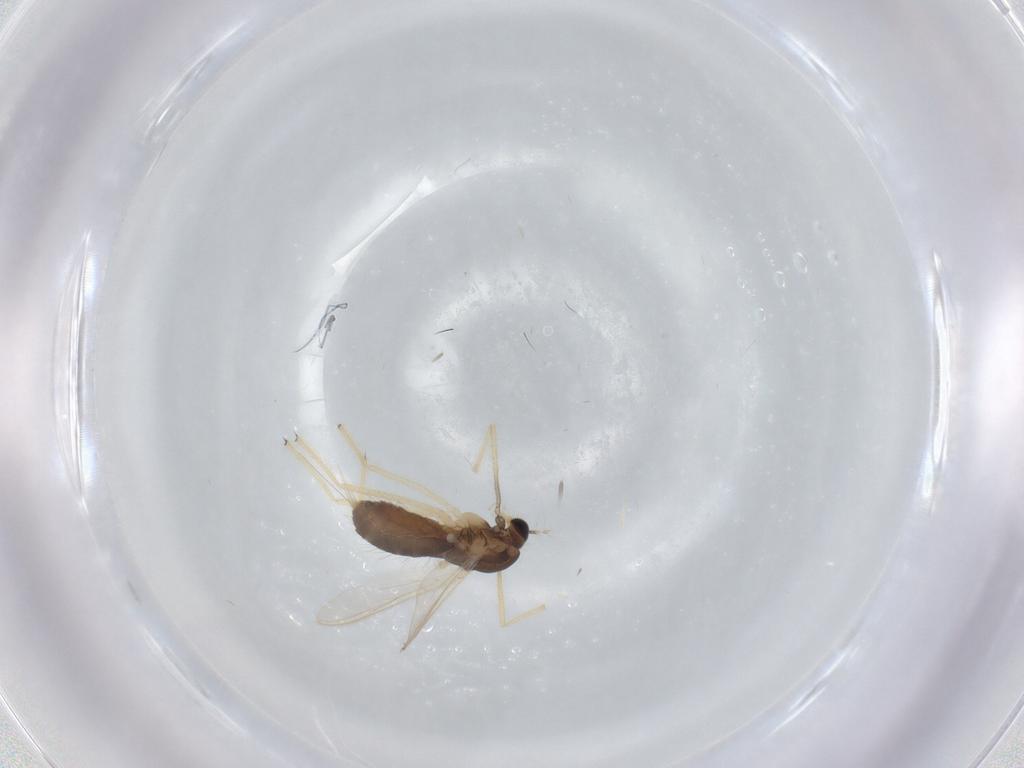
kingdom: Animalia
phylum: Arthropoda
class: Insecta
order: Diptera
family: Chironomidae
